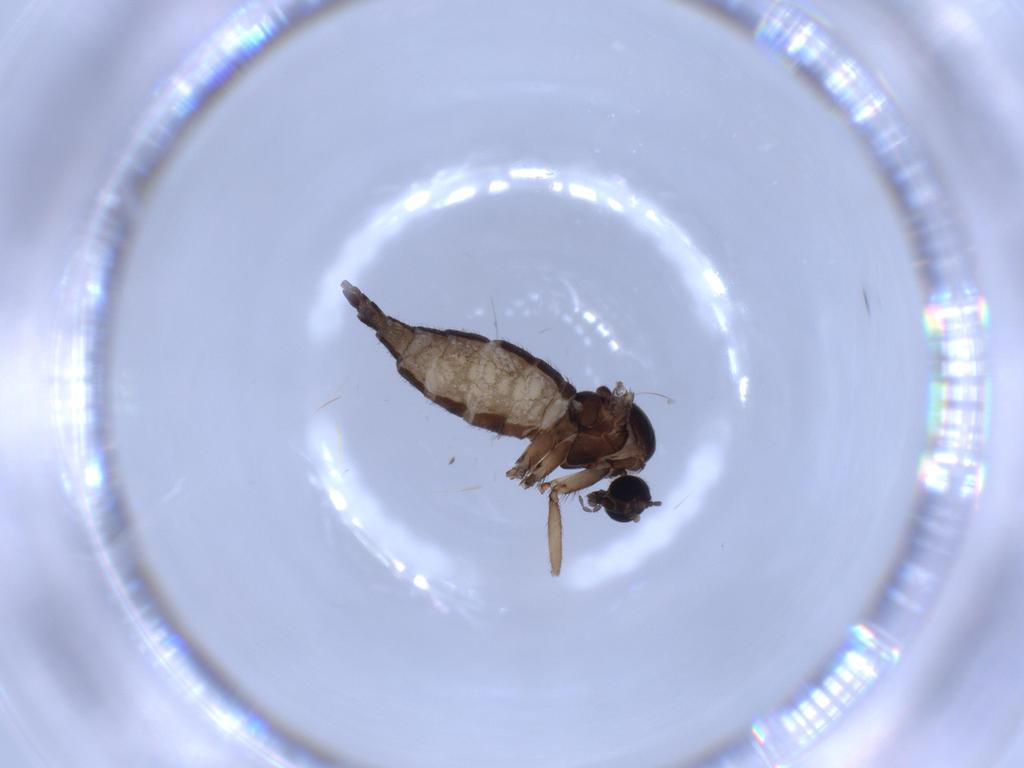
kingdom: Animalia
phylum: Arthropoda
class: Insecta
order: Diptera
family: Sciaridae
